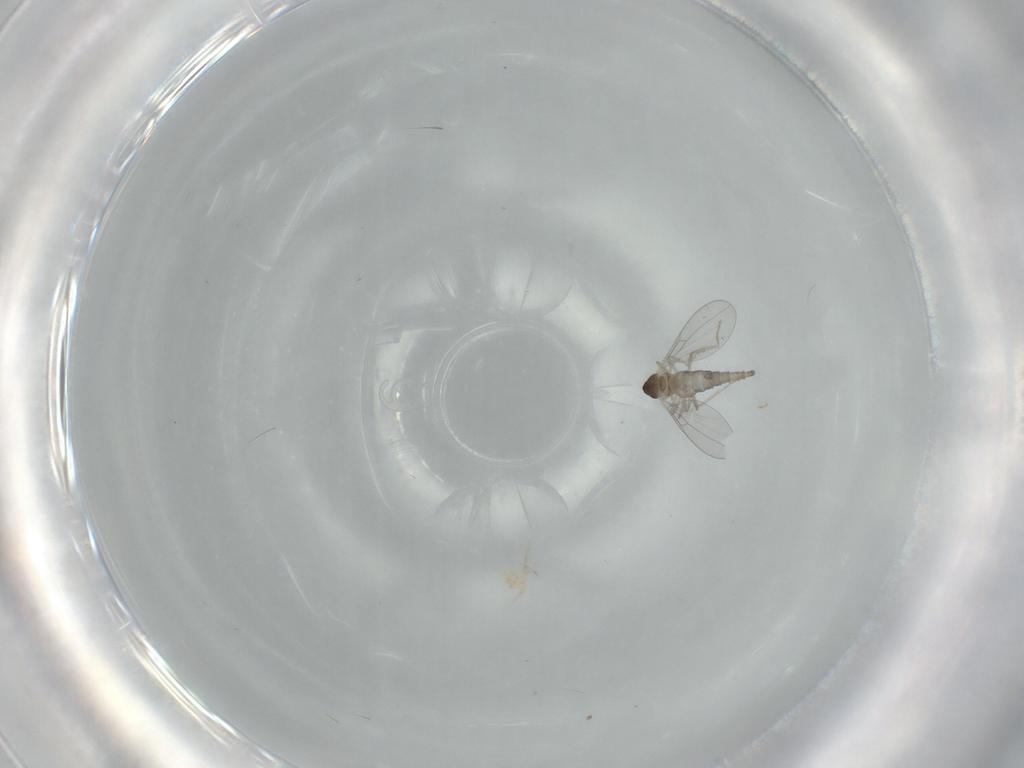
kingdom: Animalia
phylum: Arthropoda
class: Insecta
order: Diptera
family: Cecidomyiidae
